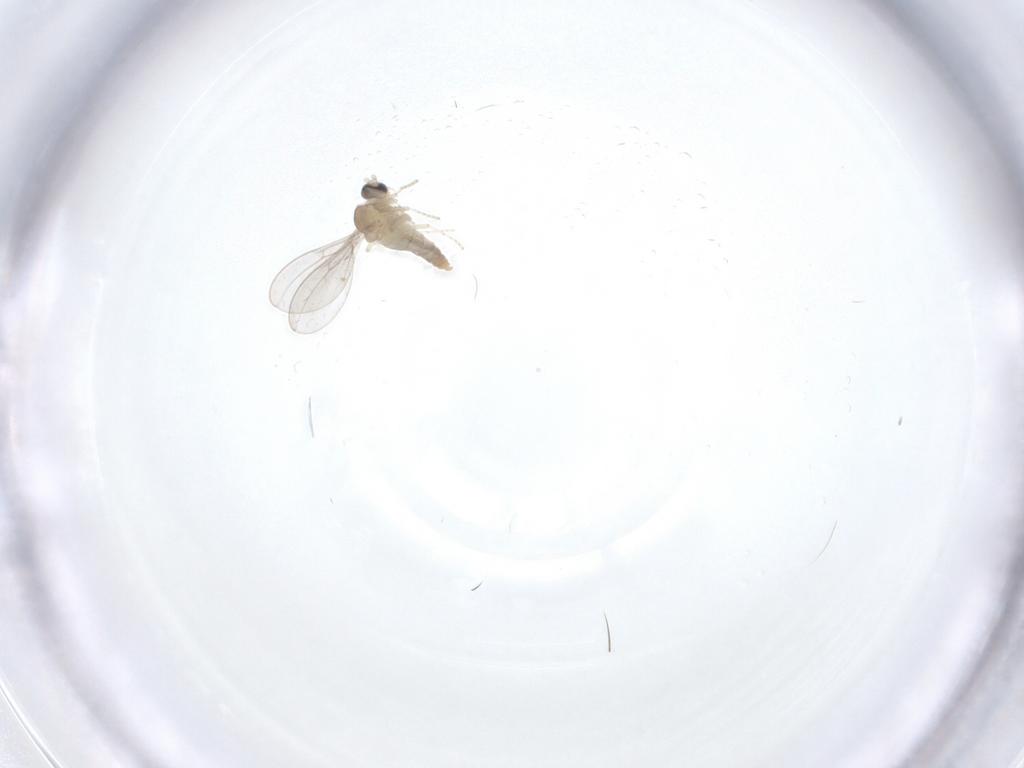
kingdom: Animalia
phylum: Arthropoda
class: Insecta
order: Diptera
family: Cecidomyiidae
